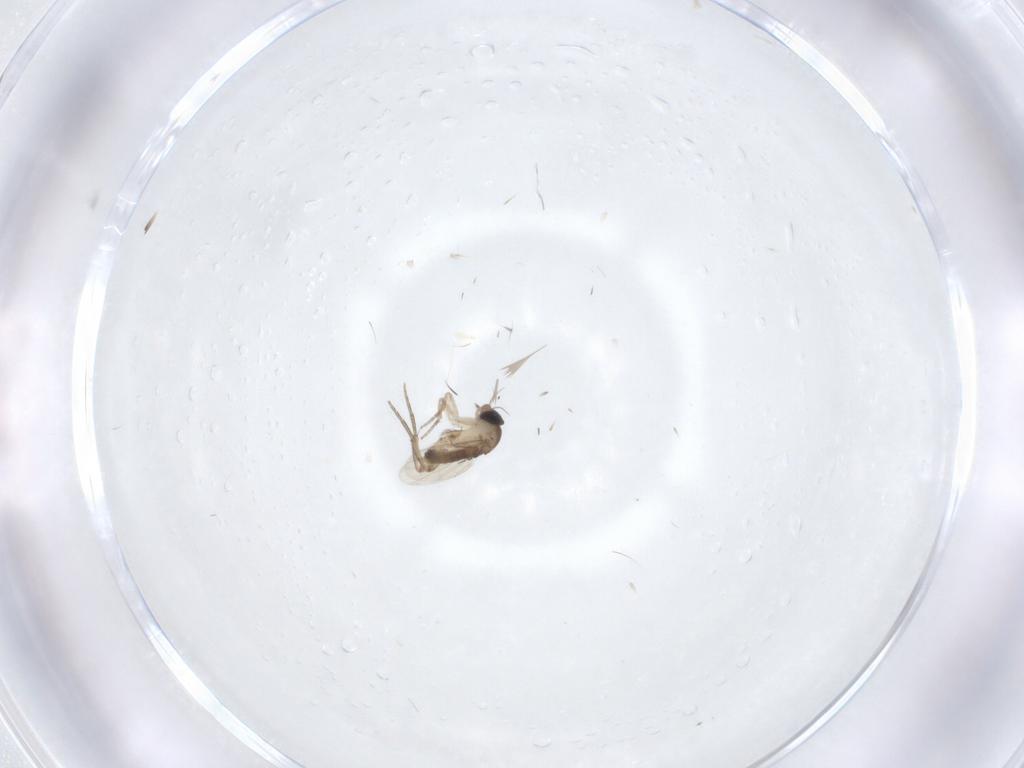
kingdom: Animalia
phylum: Arthropoda
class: Insecta
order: Diptera
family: Phoridae
